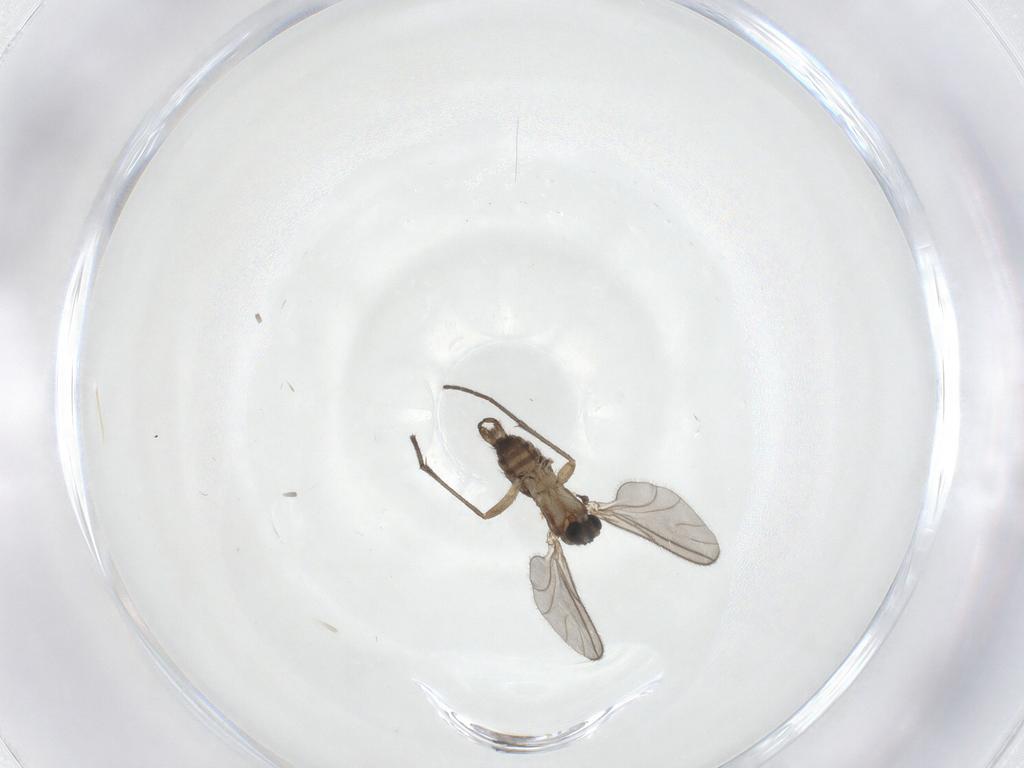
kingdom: Animalia
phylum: Arthropoda
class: Insecta
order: Diptera
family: Sciaridae
